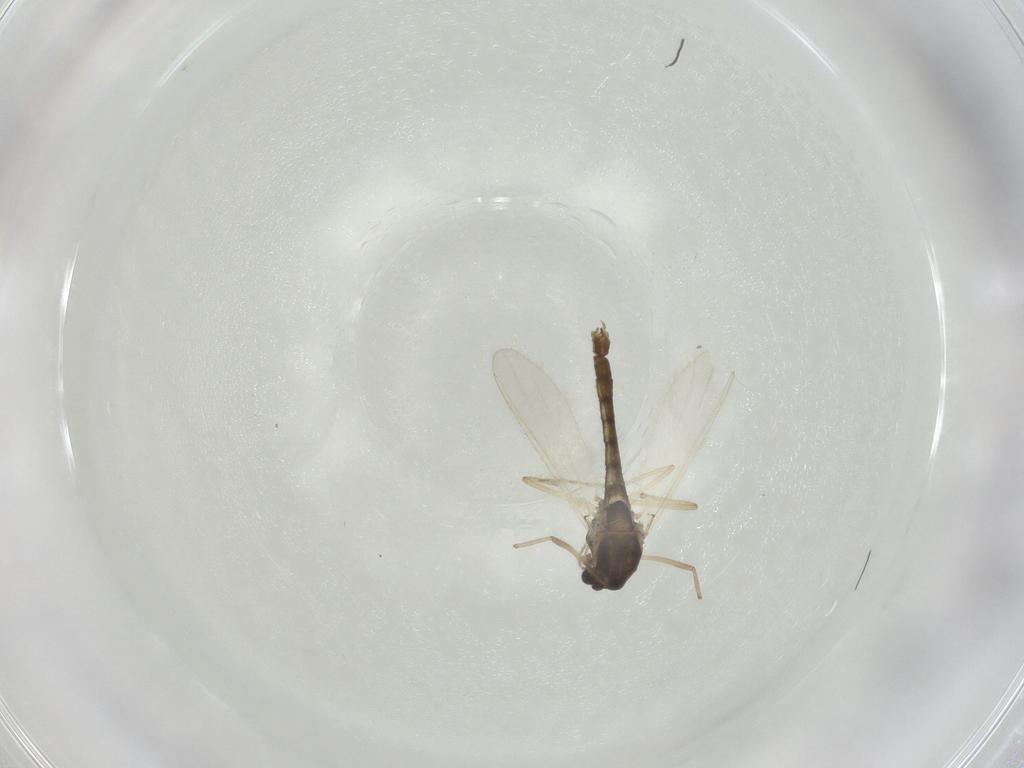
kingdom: Animalia
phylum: Arthropoda
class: Insecta
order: Diptera
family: Chironomidae
